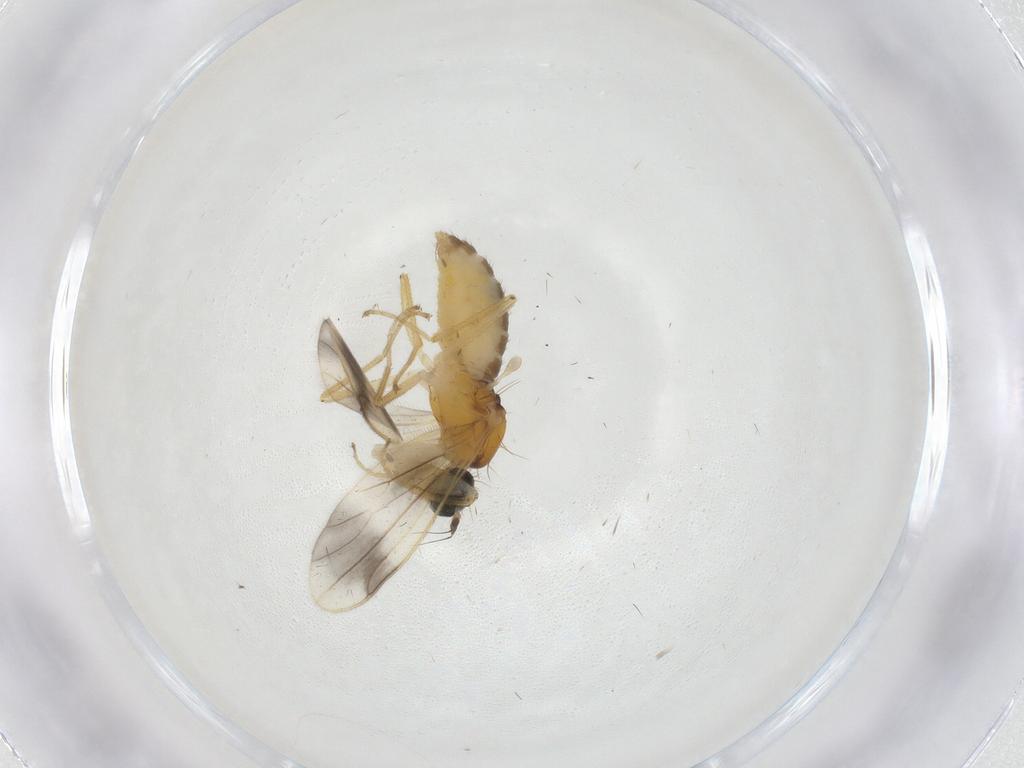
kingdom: Animalia
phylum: Arthropoda
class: Insecta
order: Diptera
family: Empididae
